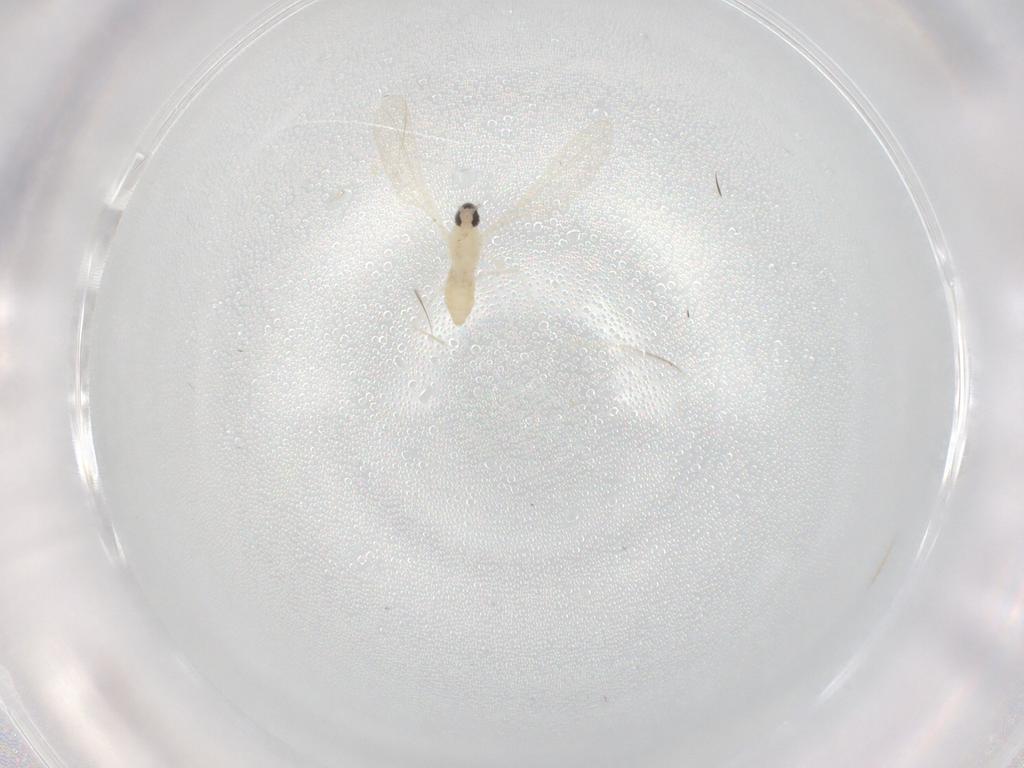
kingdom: Animalia
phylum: Arthropoda
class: Insecta
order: Diptera
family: Cecidomyiidae
